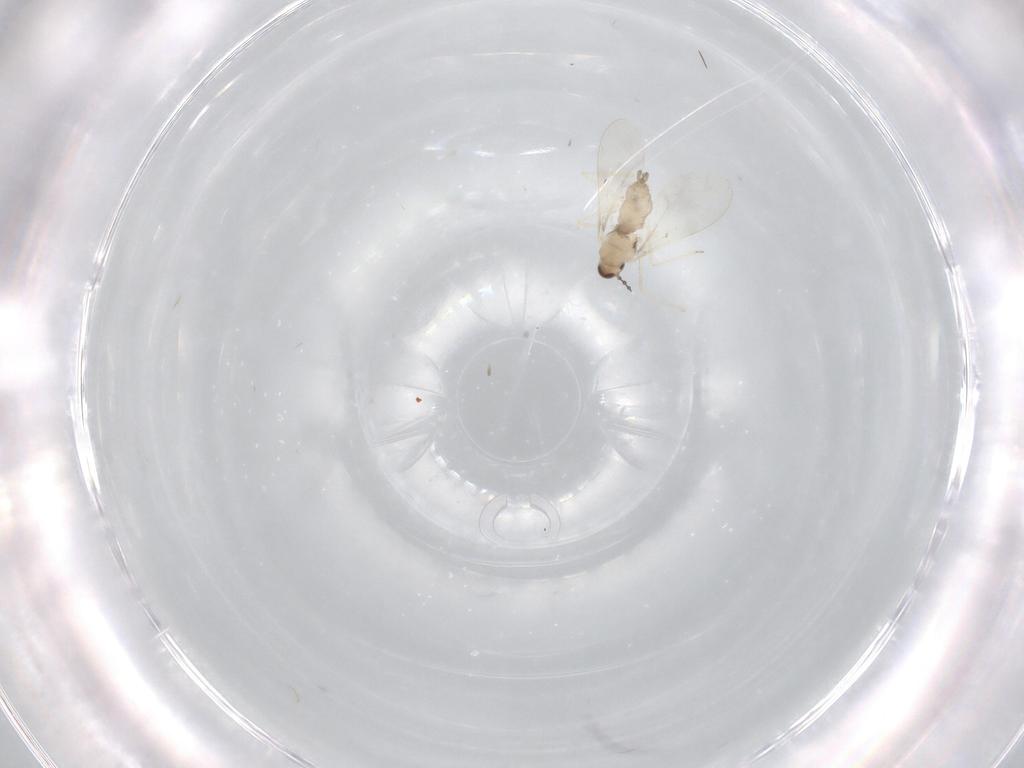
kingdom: Animalia
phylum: Arthropoda
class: Insecta
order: Diptera
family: Cecidomyiidae
